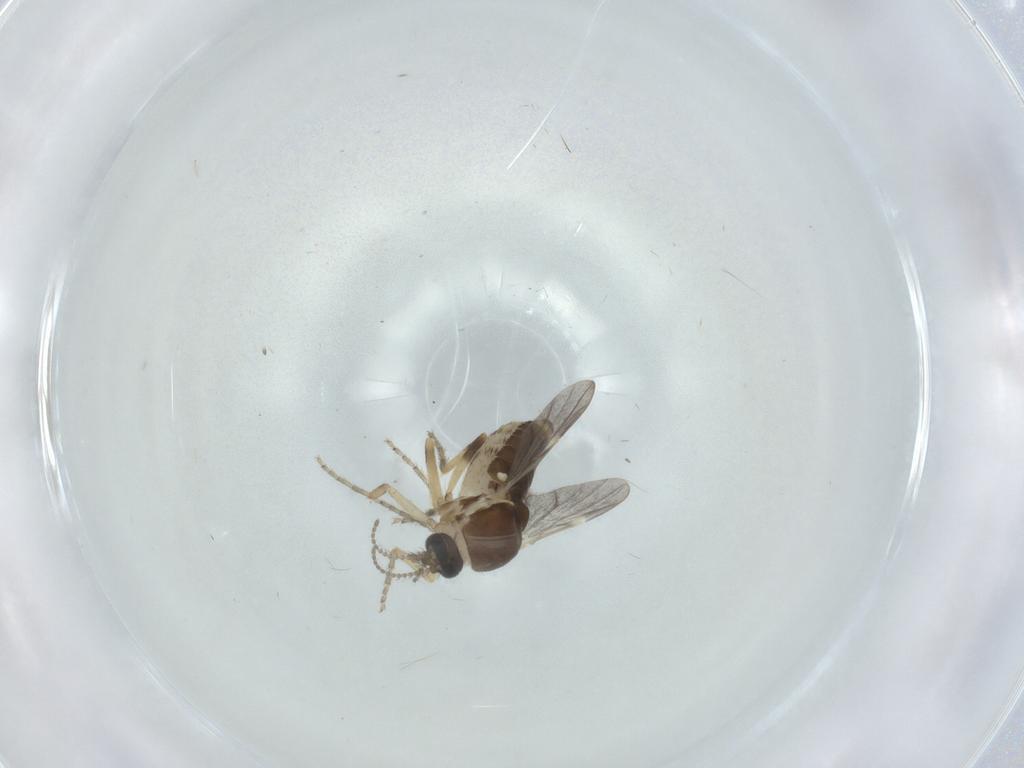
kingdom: Animalia
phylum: Arthropoda
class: Insecta
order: Diptera
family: Ceratopogonidae
